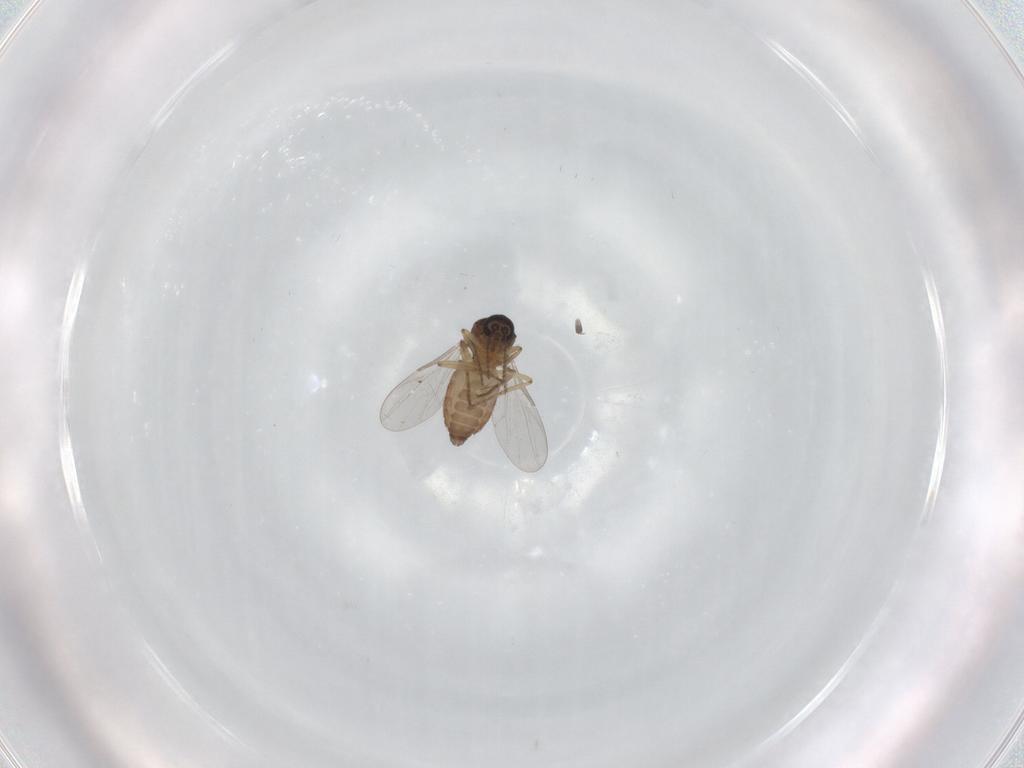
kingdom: Animalia
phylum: Arthropoda
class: Insecta
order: Diptera
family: Ceratopogonidae
